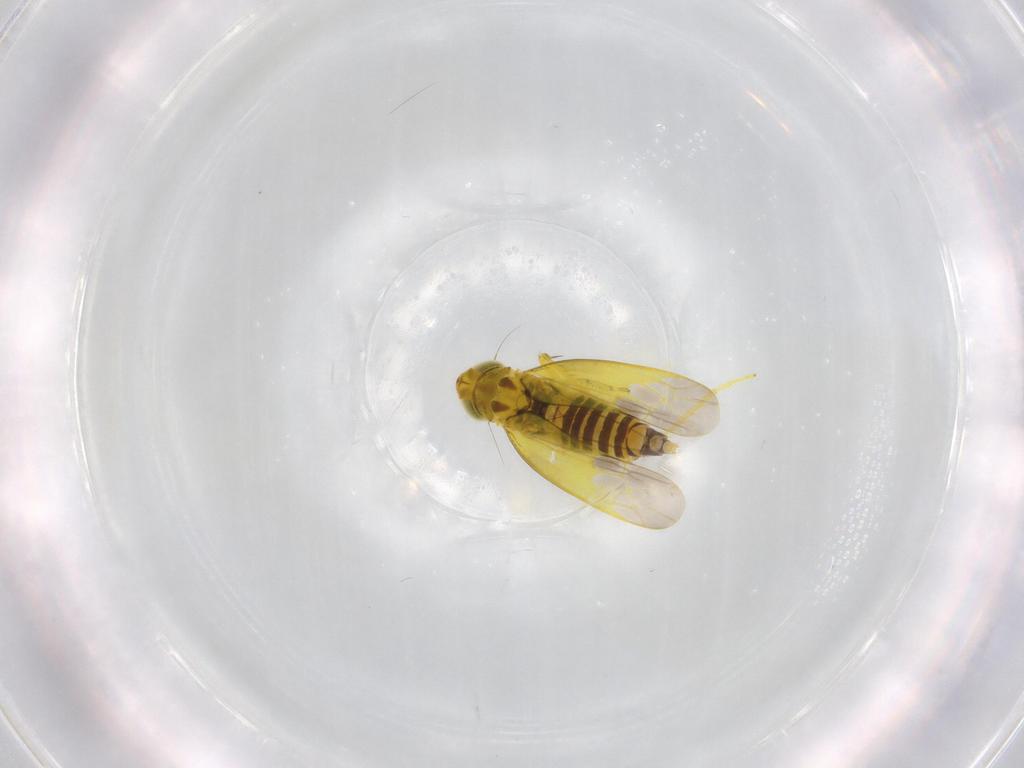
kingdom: Animalia
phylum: Arthropoda
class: Insecta
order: Hemiptera
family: Cicadellidae
